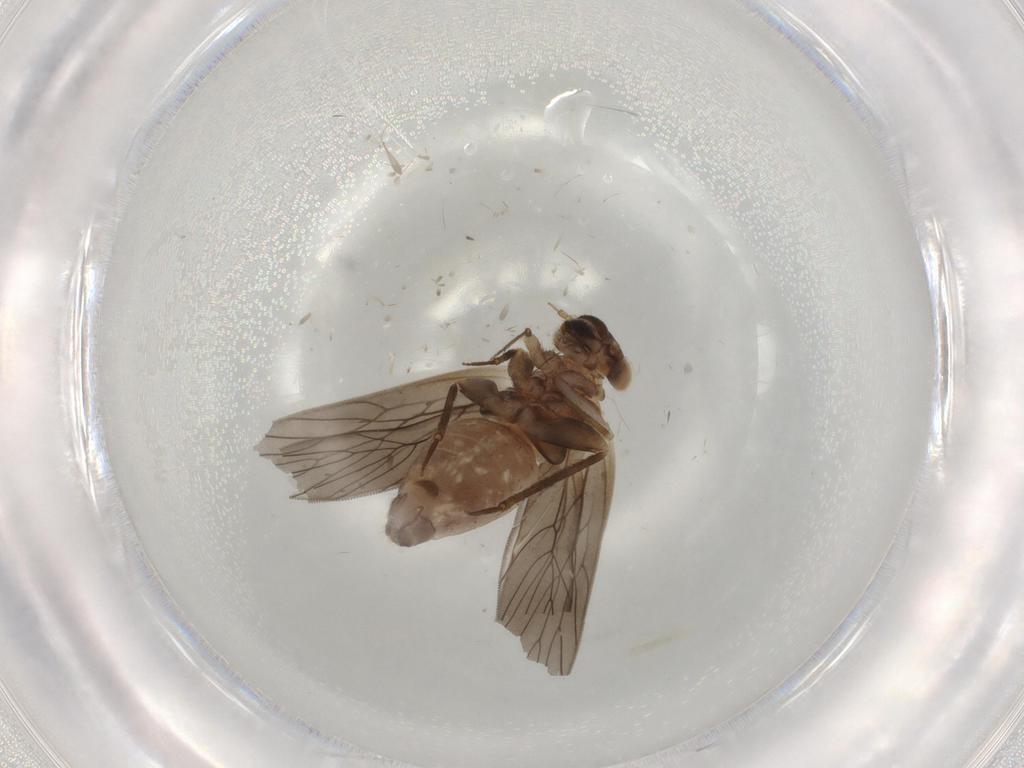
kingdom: Animalia
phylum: Arthropoda
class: Insecta
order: Psocodea
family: Lepidopsocidae
